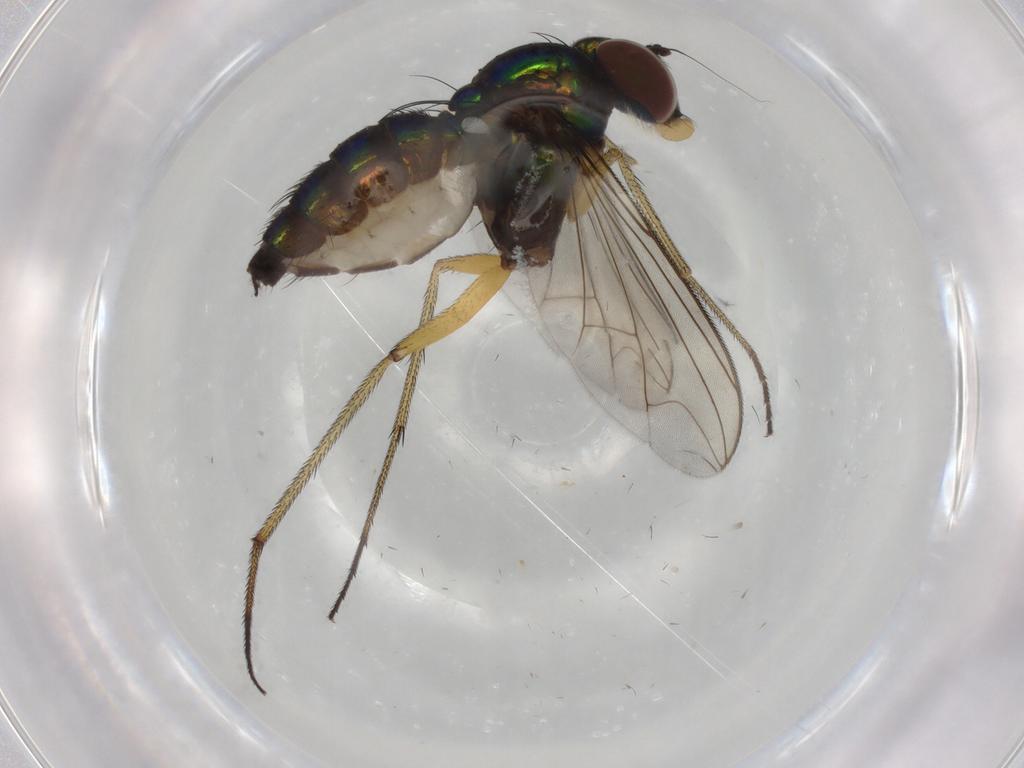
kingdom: Animalia
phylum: Arthropoda
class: Insecta
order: Diptera
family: Dolichopodidae
